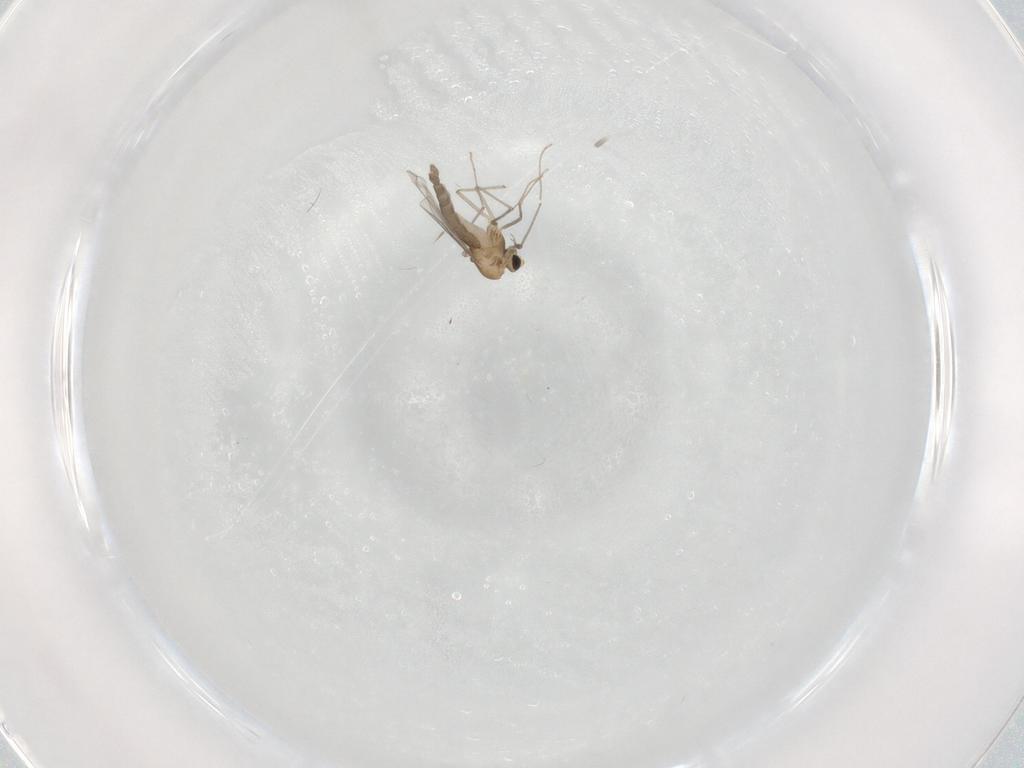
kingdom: Animalia
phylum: Arthropoda
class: Insecta
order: Diptera
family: Chironomidae
